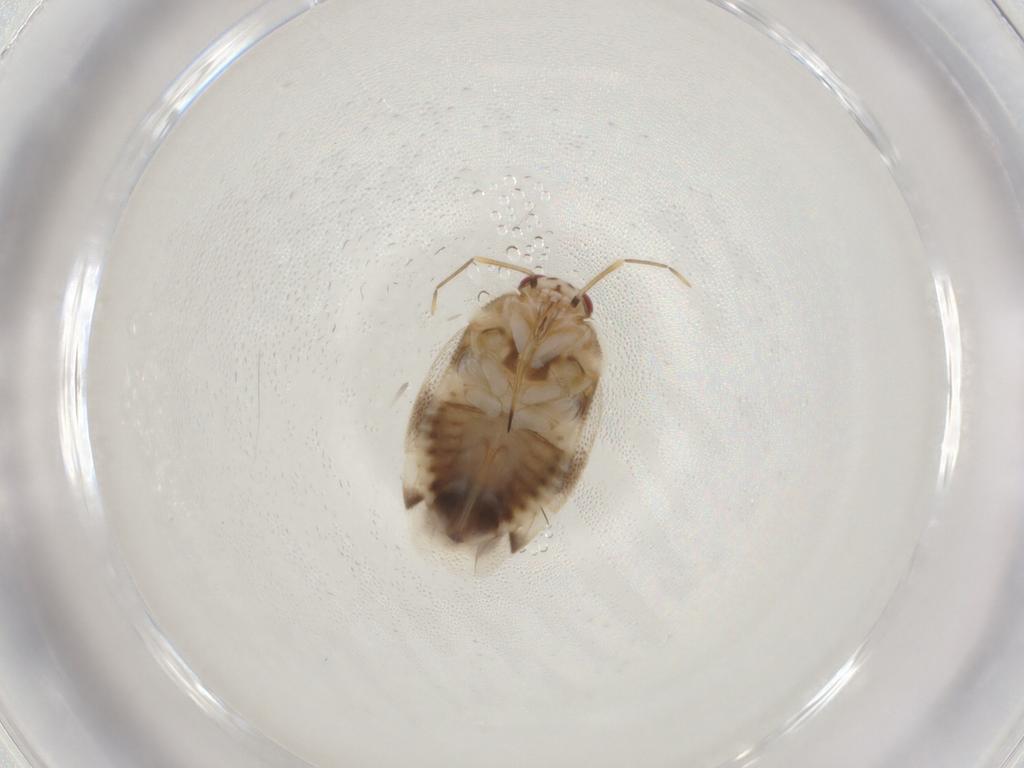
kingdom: Animalia
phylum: Arthropoda
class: Insecta
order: Hemiptera
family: Miridae
